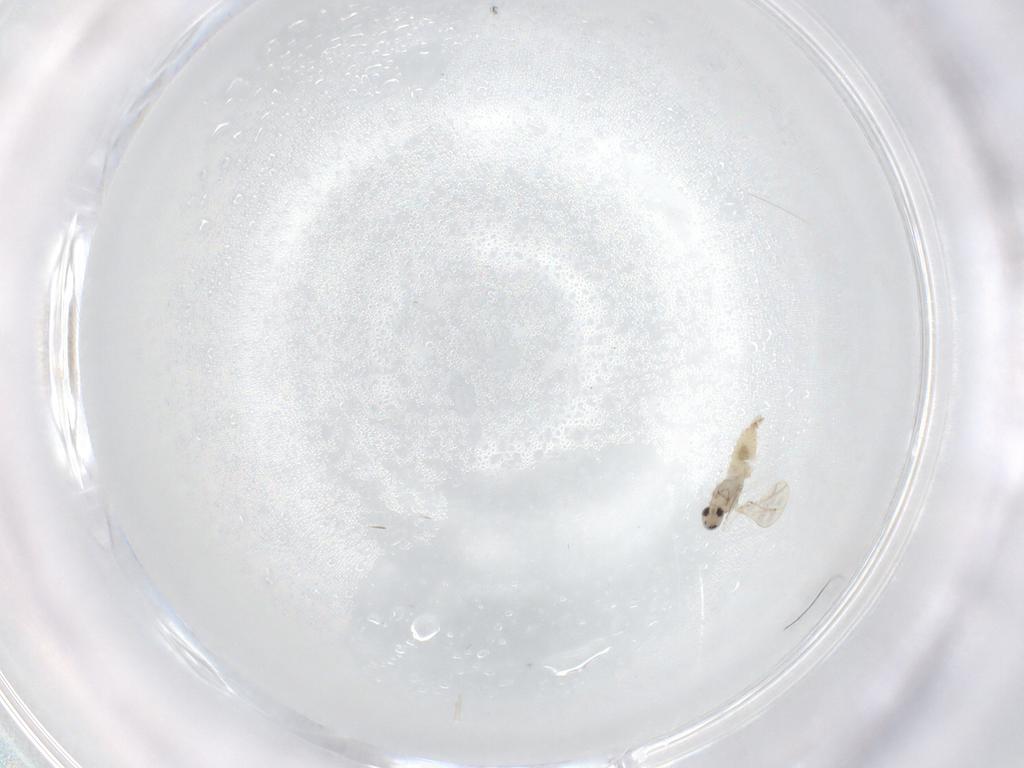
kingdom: Animalia
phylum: Arthropoda
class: Insecta
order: Diptera
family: Cecidomyiidae
